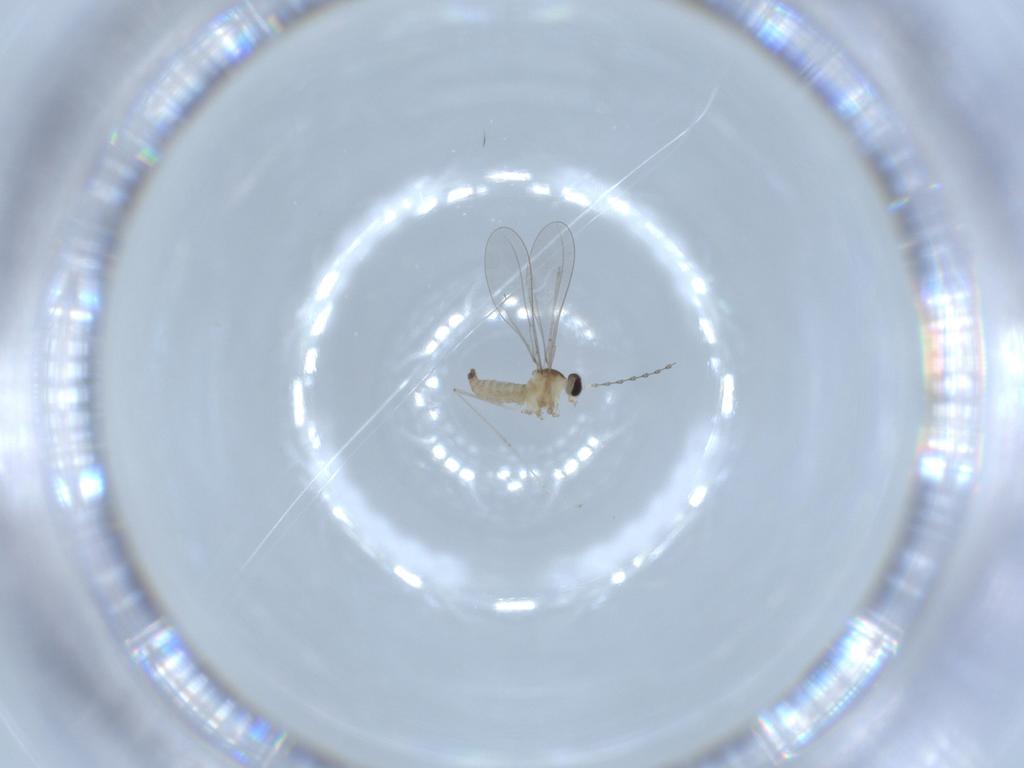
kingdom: Animalia
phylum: Arthropoda
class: Insecta
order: Diptera
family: Cecidomyiidae
